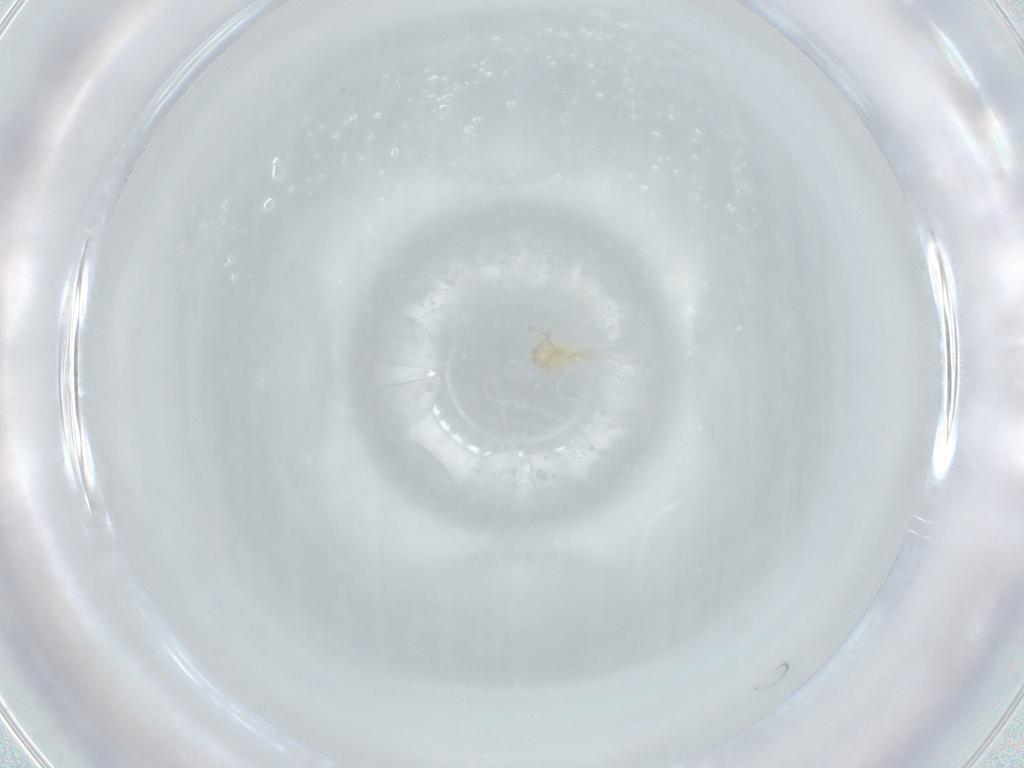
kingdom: Animalia
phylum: Arthropoda
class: Arachnida
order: Trombidiformes
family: Erythraeidae
